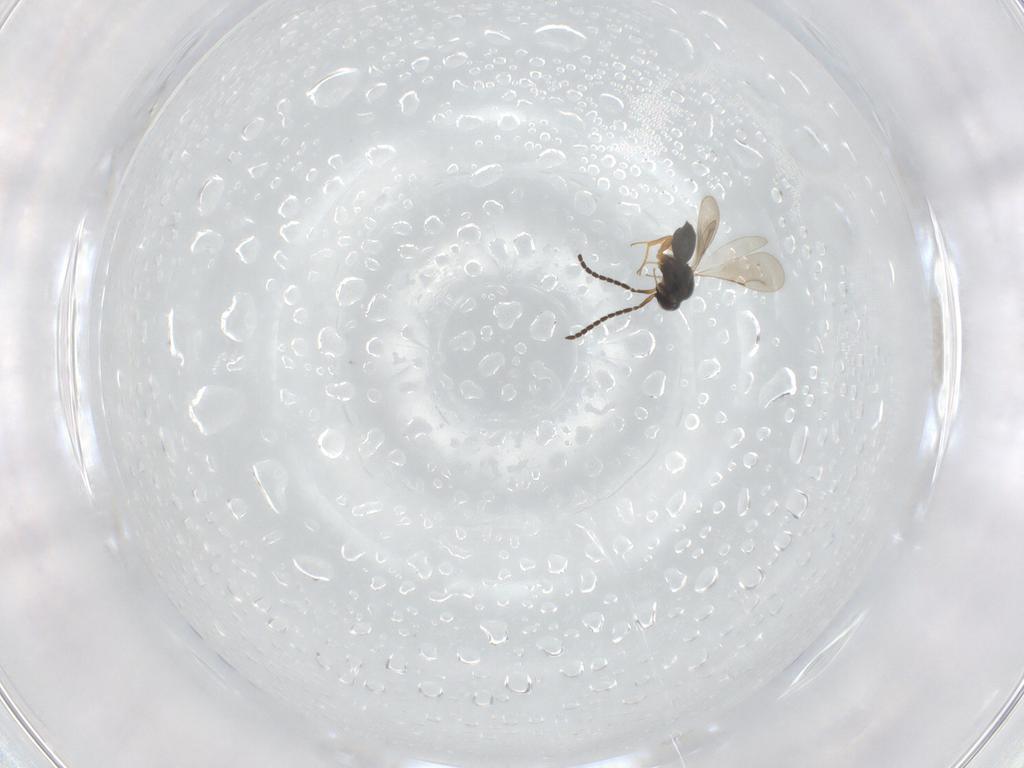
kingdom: Animalia
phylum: Arthropoda
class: Insecta
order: Hymenoptera
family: Ceraphronidae
